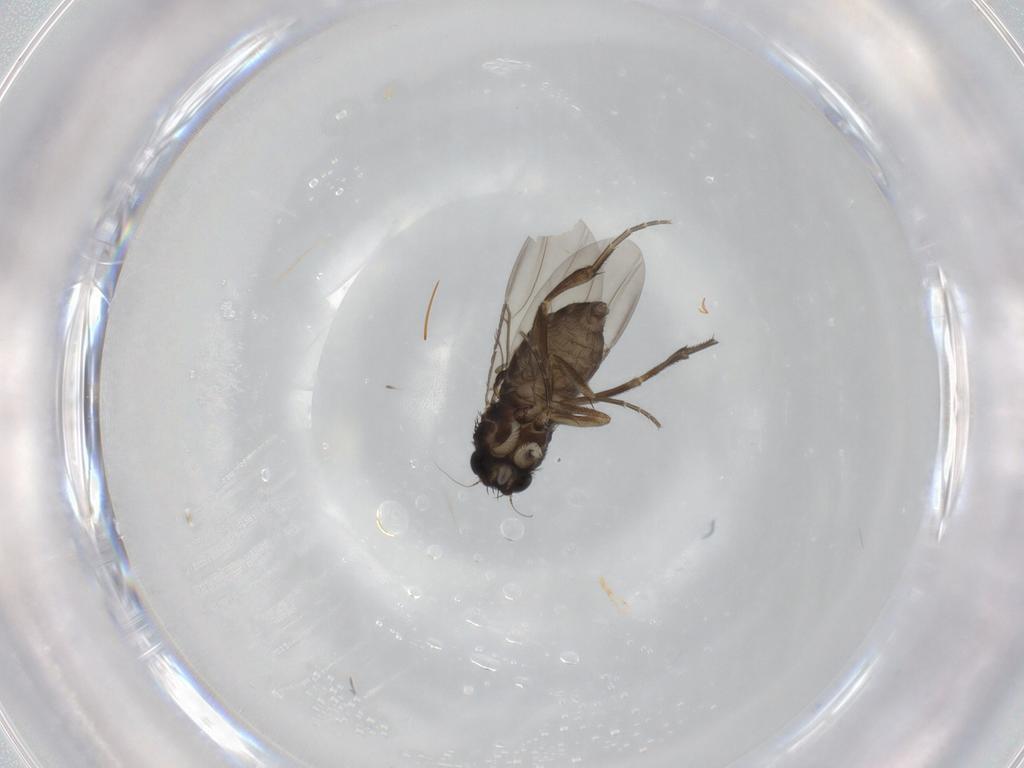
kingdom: Animalia
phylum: Arthropoda
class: Insecta
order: Diptera
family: Phoridae
